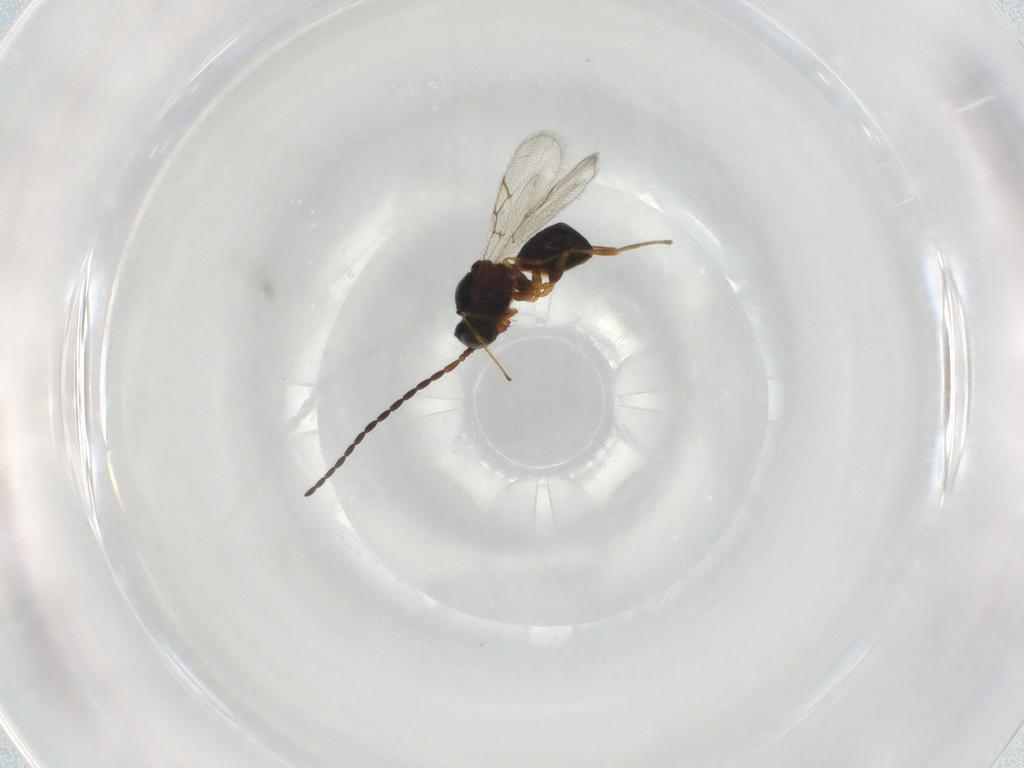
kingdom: Animalia
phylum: Arthropoda
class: Insecta
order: Hymenoptera
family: Figitidae
